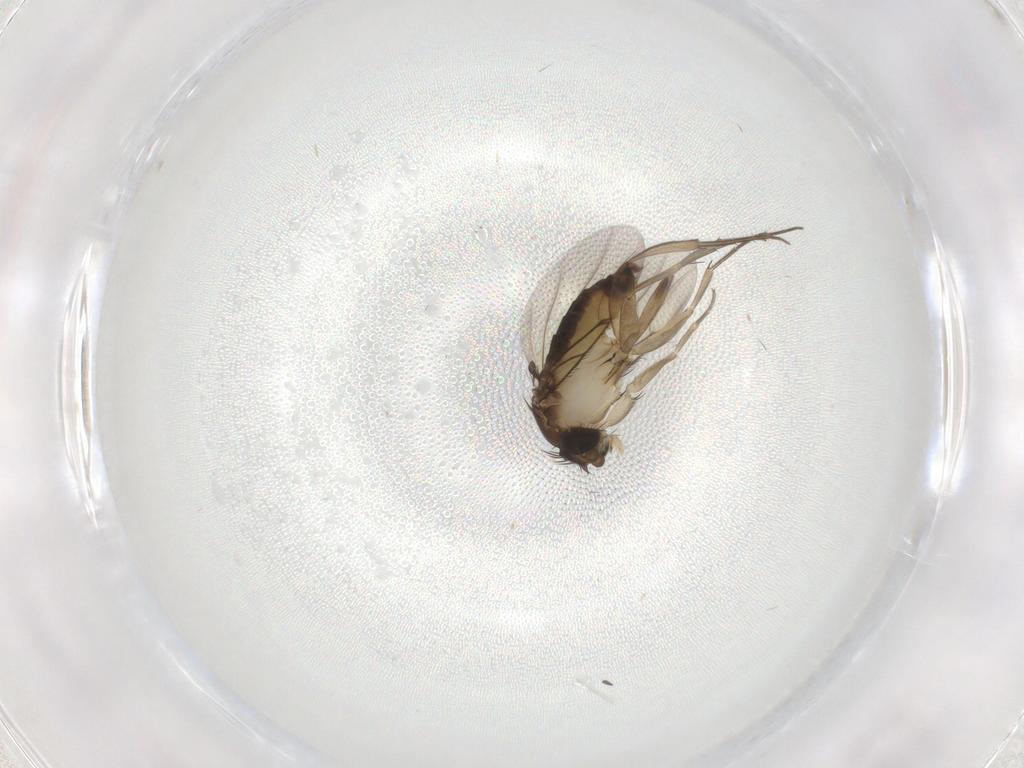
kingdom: Animalia
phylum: Arthropoda
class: Insecta
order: Diptera
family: Phoridae
